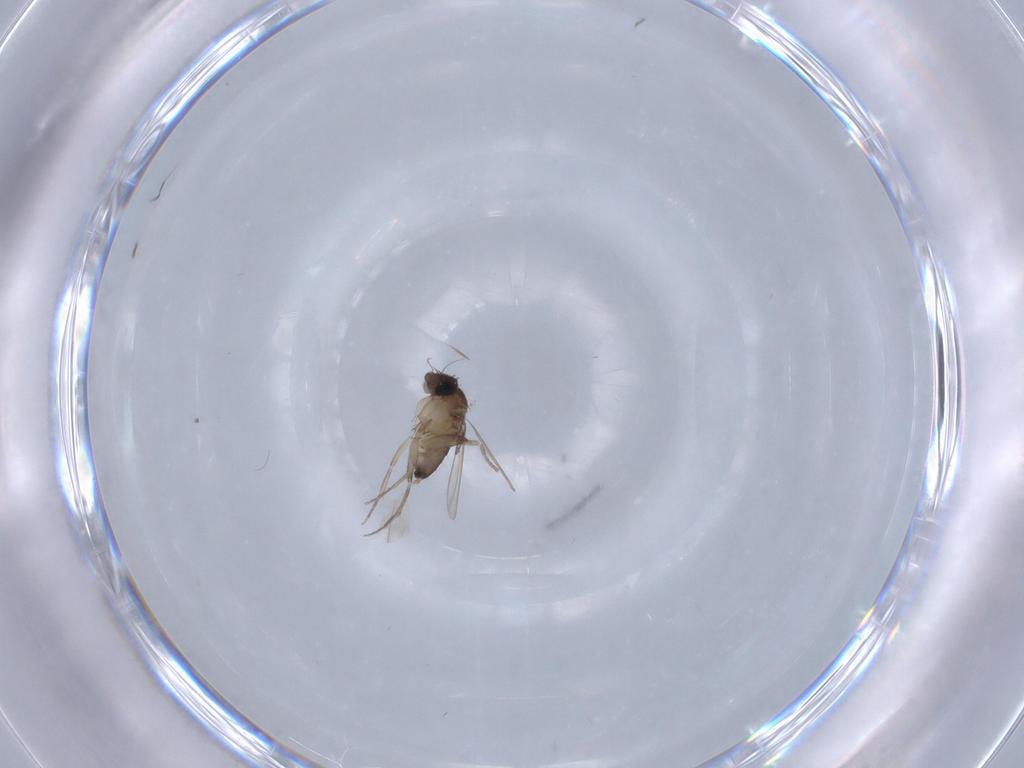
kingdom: Animalia
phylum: Arthropoda
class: Insecta
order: Diptera
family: Phoridae
